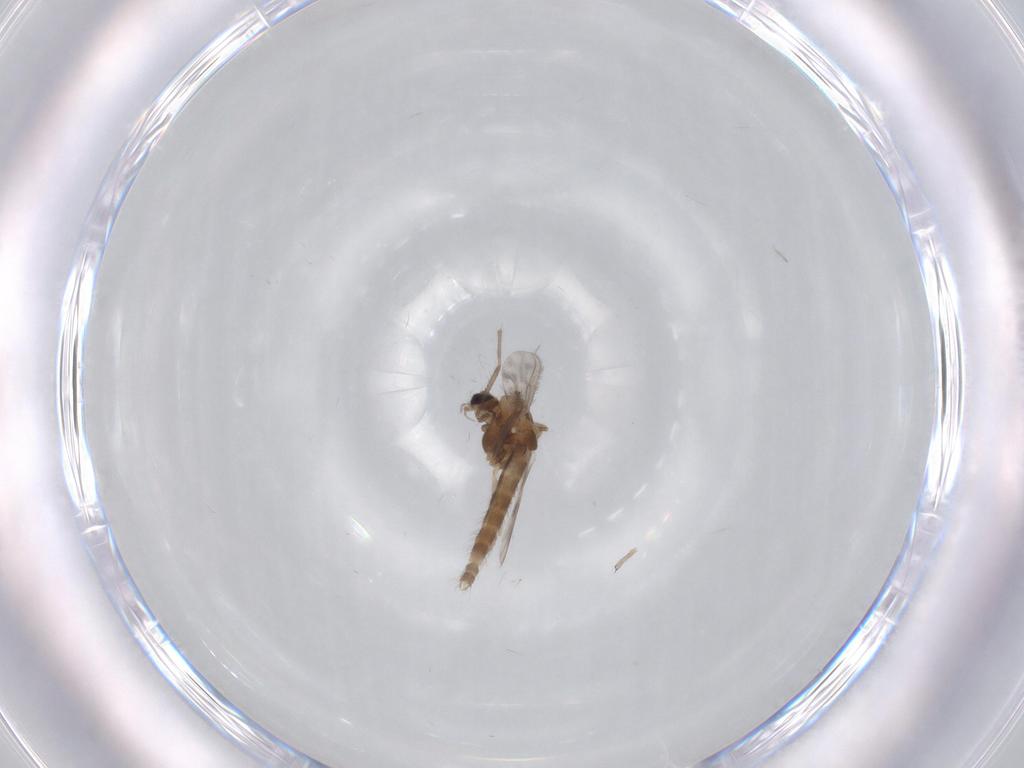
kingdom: Animalia
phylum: Arthropoda
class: Insecta
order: Diptera
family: Chironomidae
